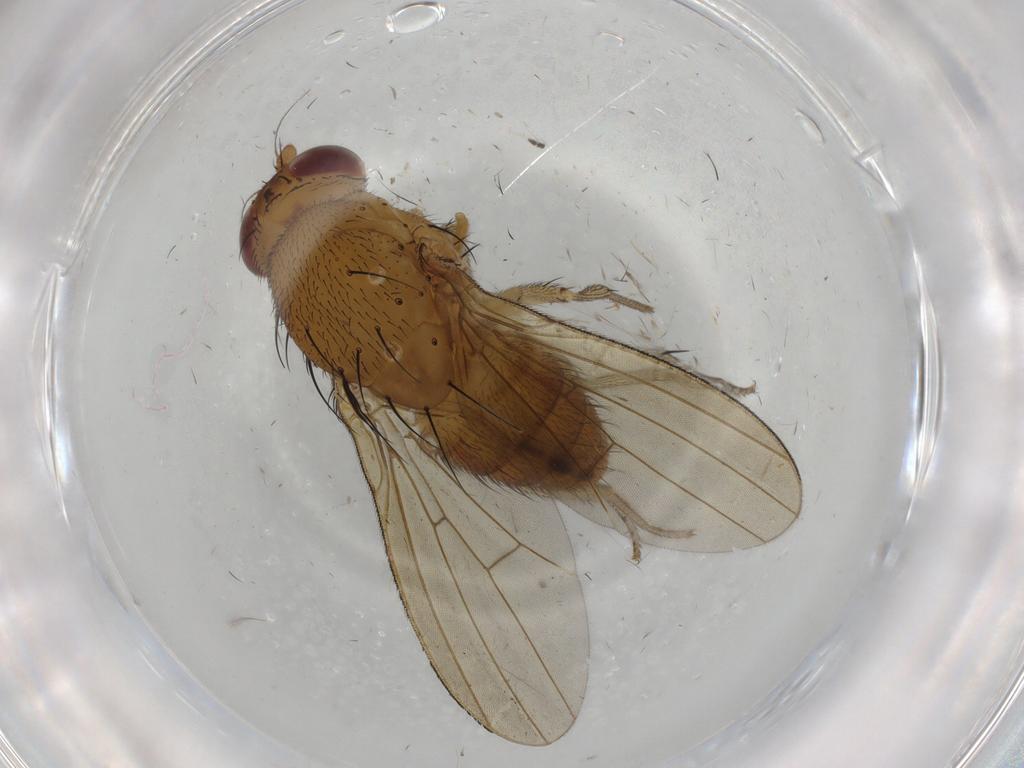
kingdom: Animalia
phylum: Arthropoda
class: Insecta
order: Diptera
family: Chironomidae
